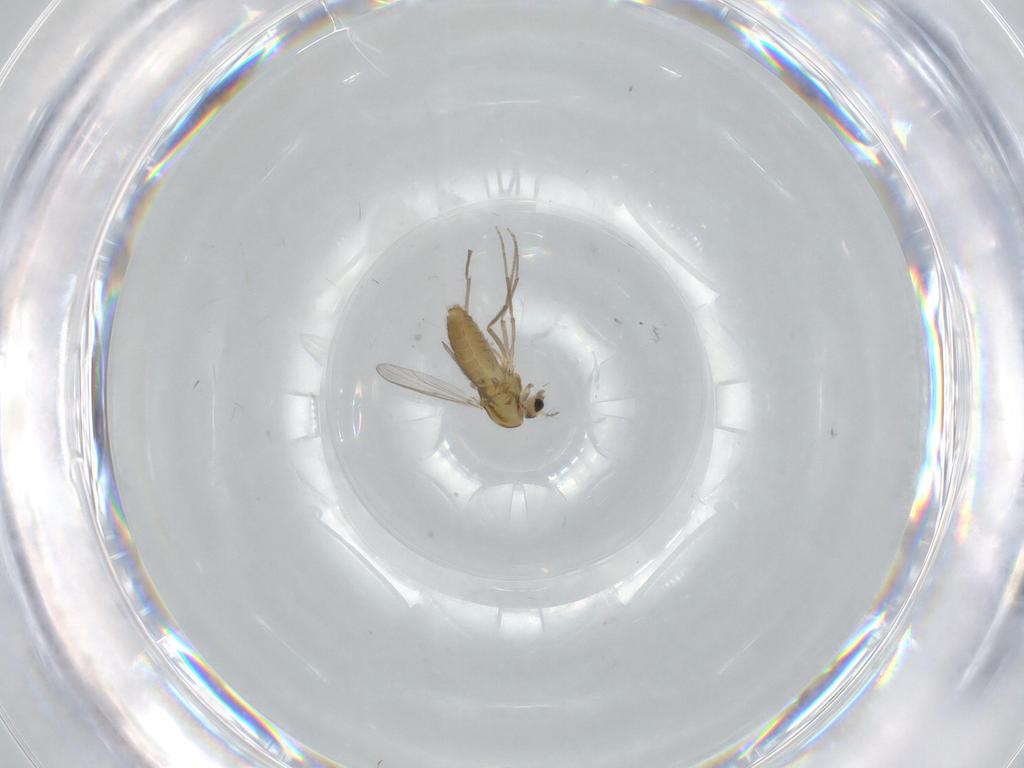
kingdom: Animalia
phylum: Arthropoda
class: Insecta
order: Diptera
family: Chironomidae
